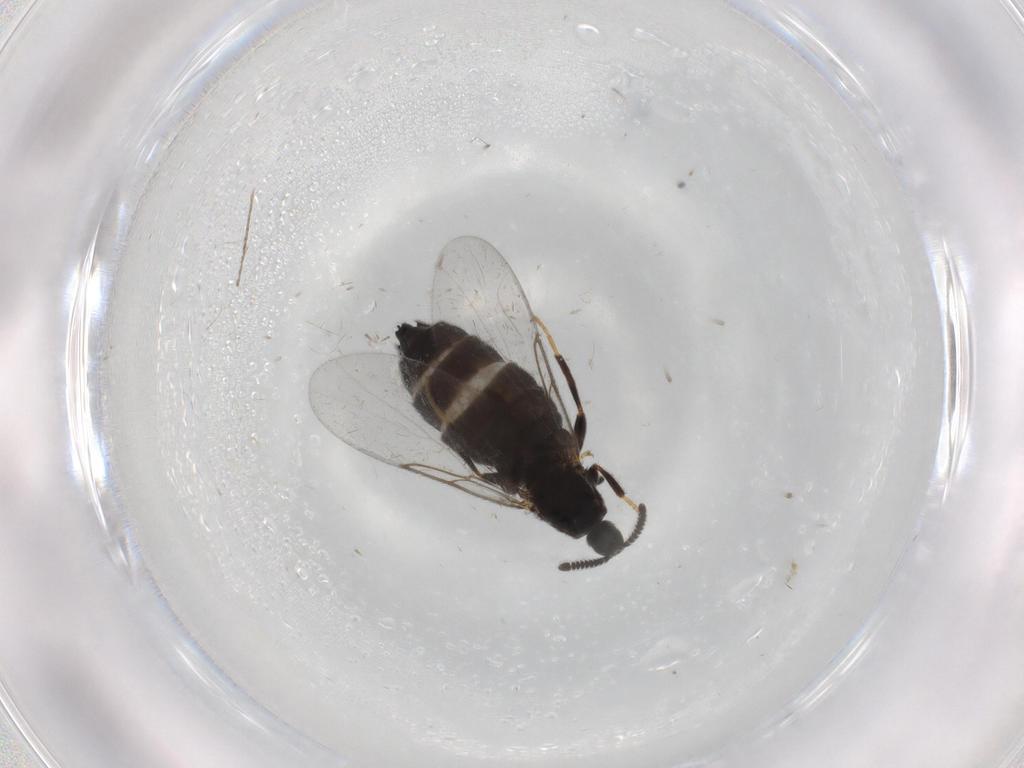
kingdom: Animalia
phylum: Arthropoda
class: Insecta
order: Diptera
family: Scatopsidae
